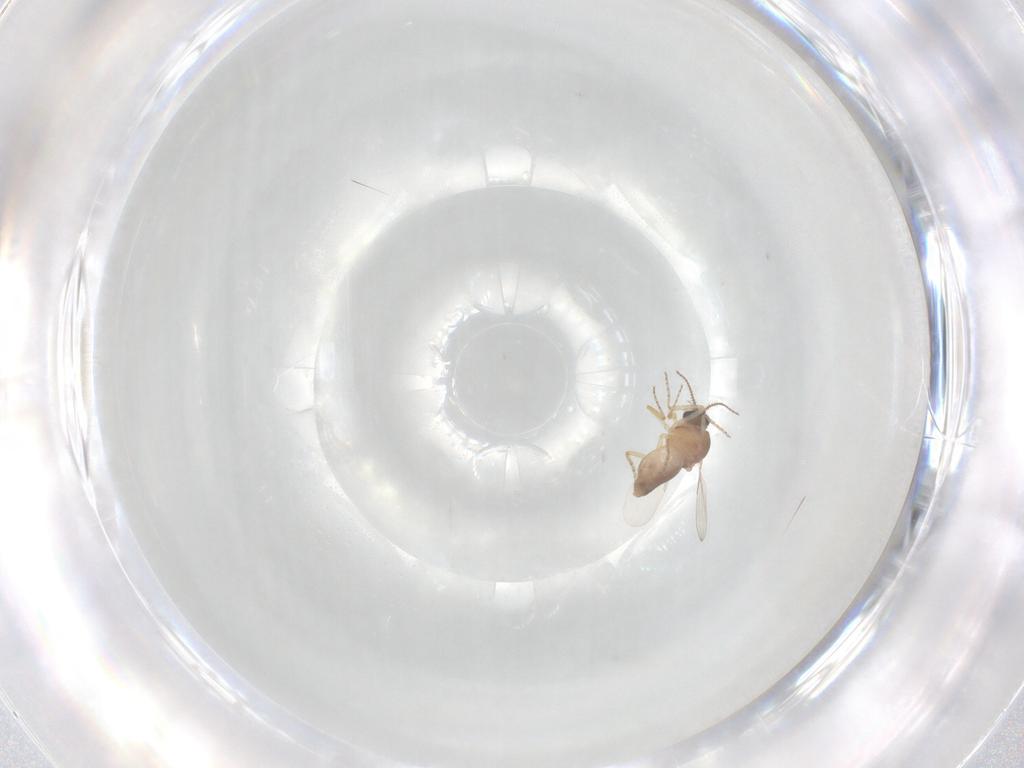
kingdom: Animalia
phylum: Arthropoda
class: Insecta
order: Diptera
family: Ceratopogonidae
